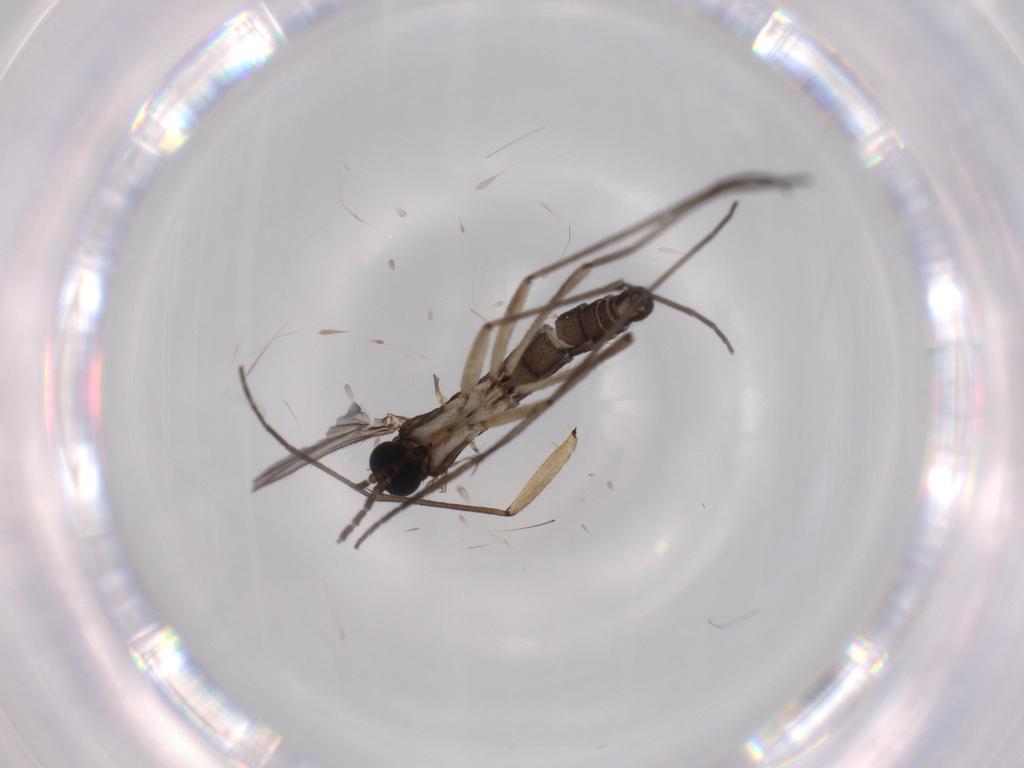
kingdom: Animalia
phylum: Arthropoda
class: Insecta
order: Diptera
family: Sciaridae
